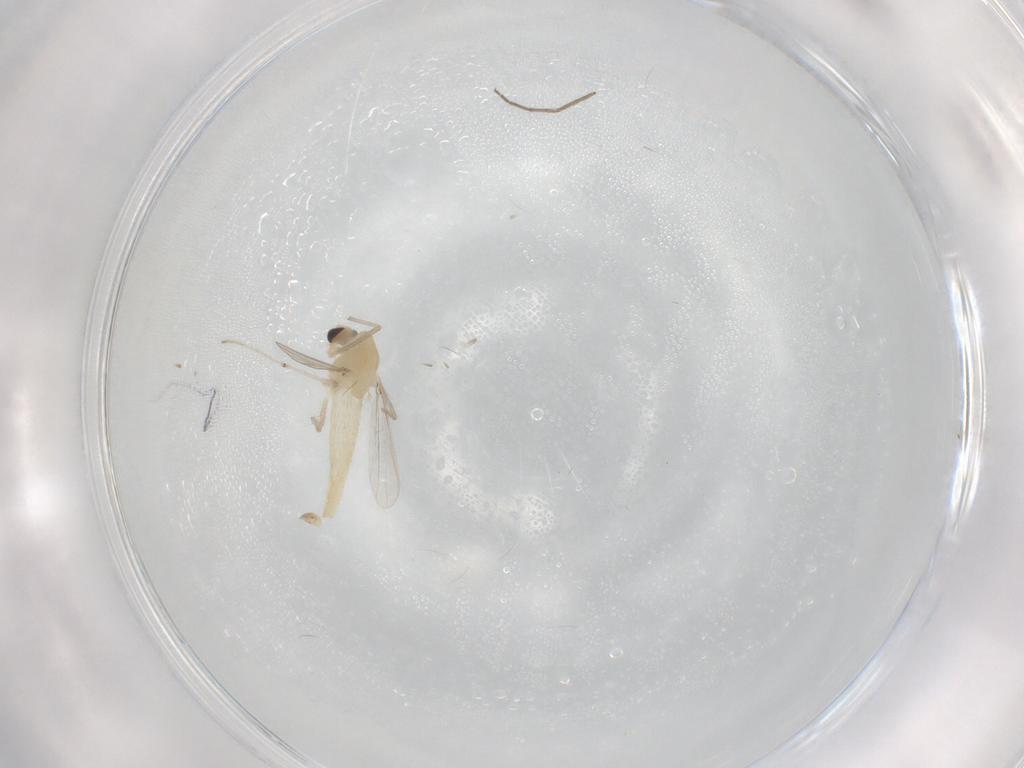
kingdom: Animalia
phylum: Arthropoda
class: Insecta
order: Diptera
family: Chironomidae
